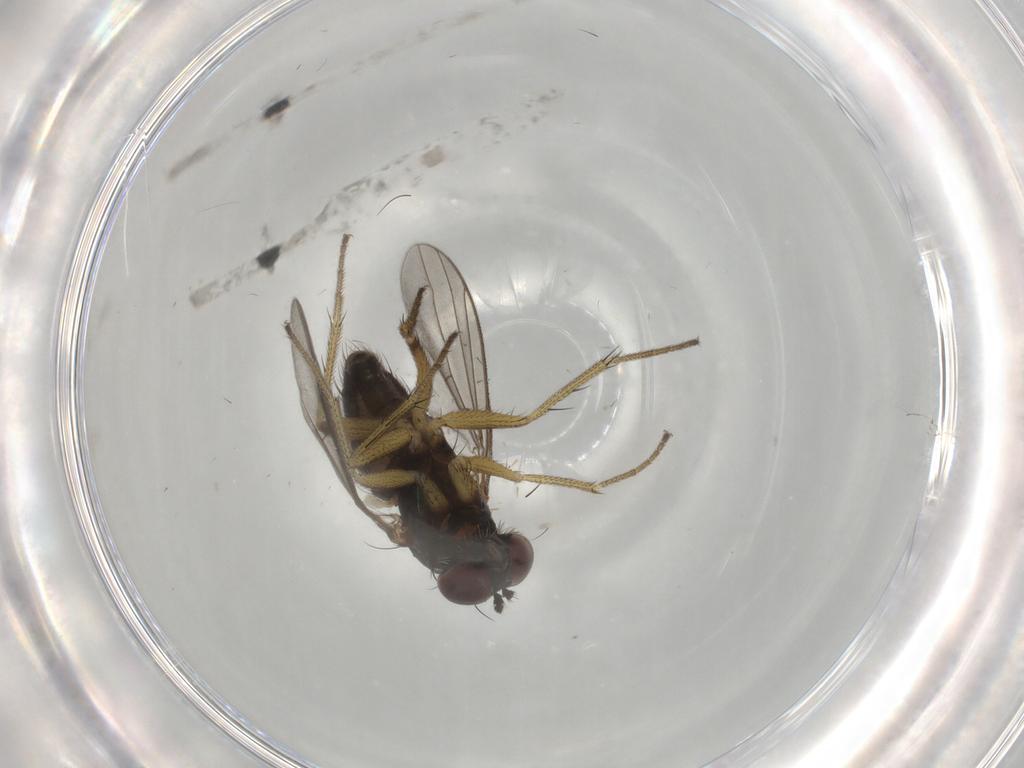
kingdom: Animalia
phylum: Arthropoda
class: Insecta
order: Diptera
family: Dolichopodidae
